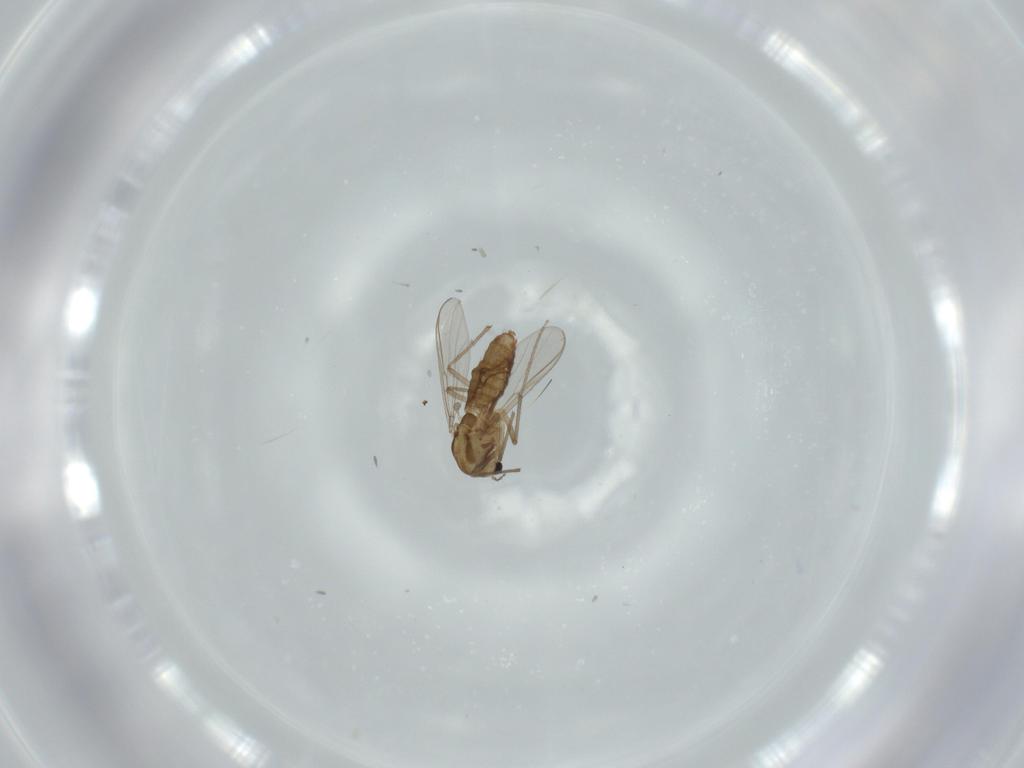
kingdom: Animalia
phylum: Arthropoda
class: Insecta
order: Diptera
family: Chironomidae
